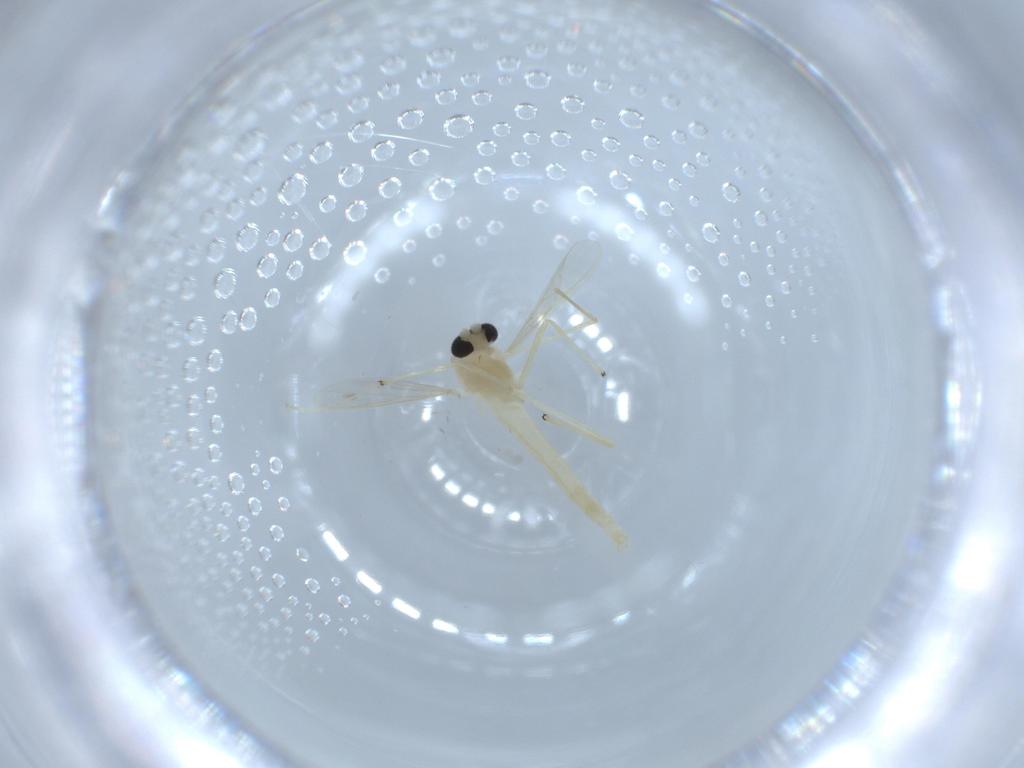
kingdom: Animalia
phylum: Arthropoda
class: Insecta
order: Diptera
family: Chironomidae
